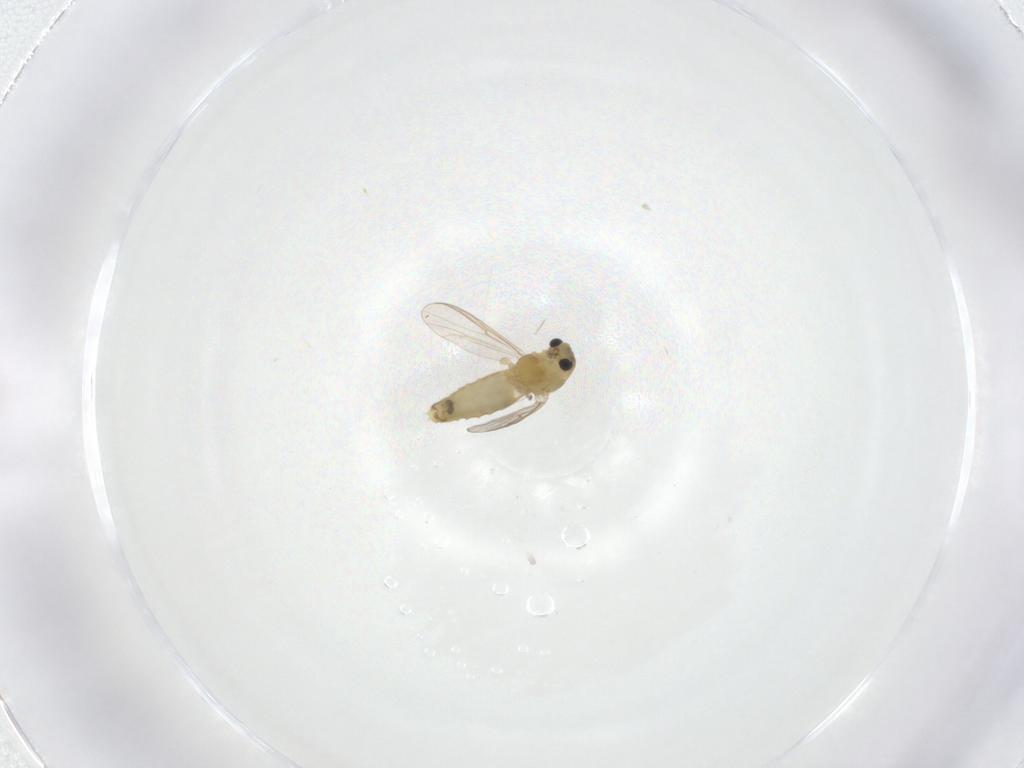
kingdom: Animalia
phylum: Arthropoda
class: Insecta
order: Diptera
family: Chironomidae
